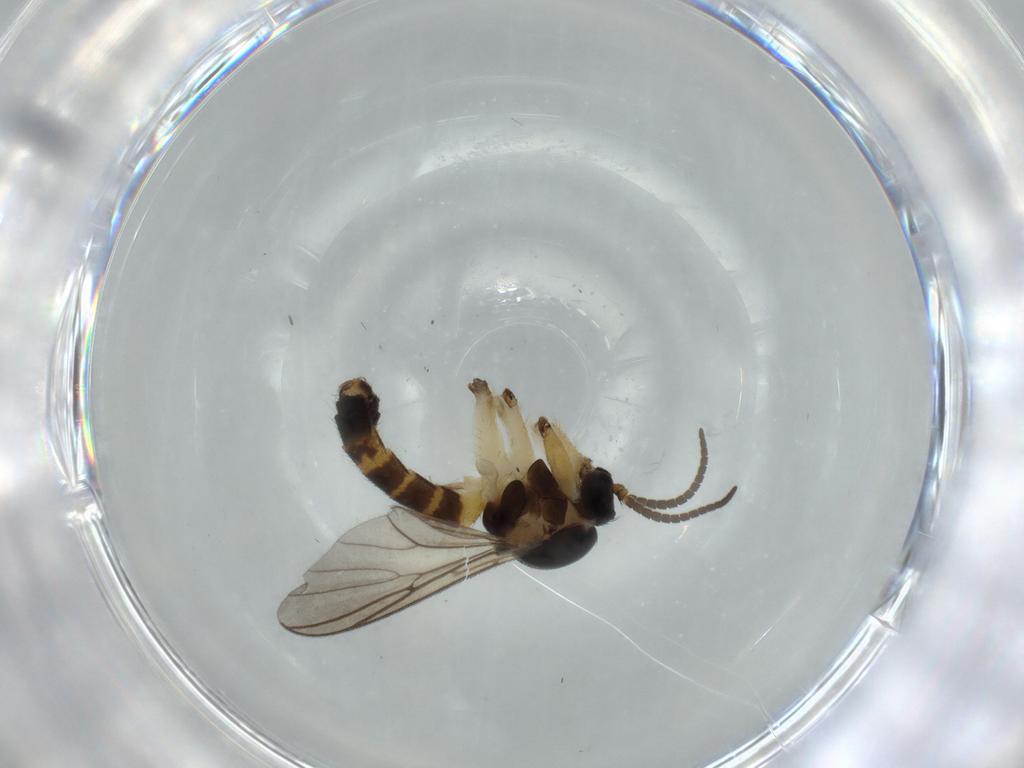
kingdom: Animalia
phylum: Arthropoda
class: Insecta
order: Diptera
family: Mycetophilidae
